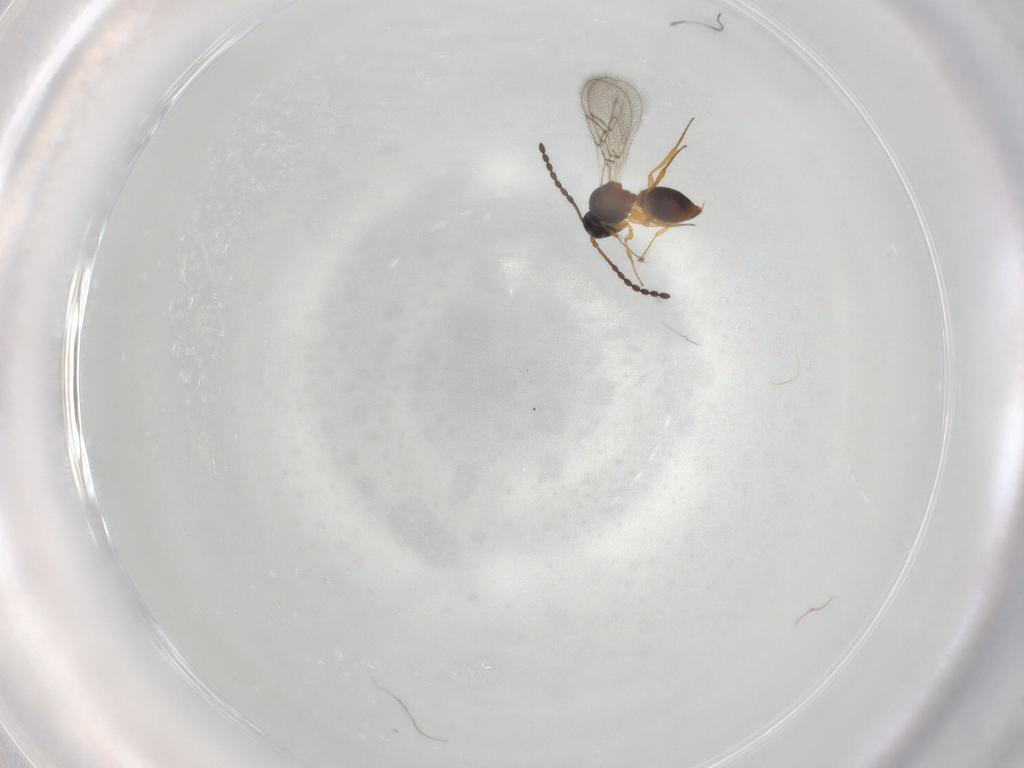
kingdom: Animalia
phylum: Arthropoda
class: Insecta
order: Hymenoptera
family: Figitidae
